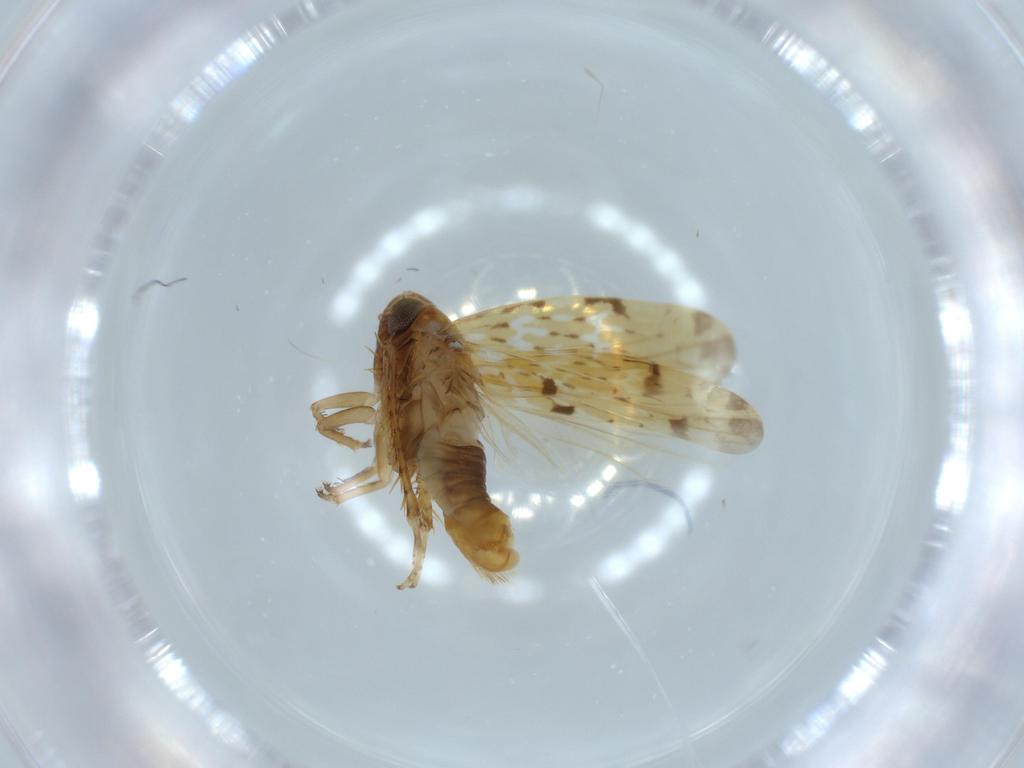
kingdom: Animalia
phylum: Arthropoda
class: Insecta
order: Hemiptera
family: Cicadellidae
